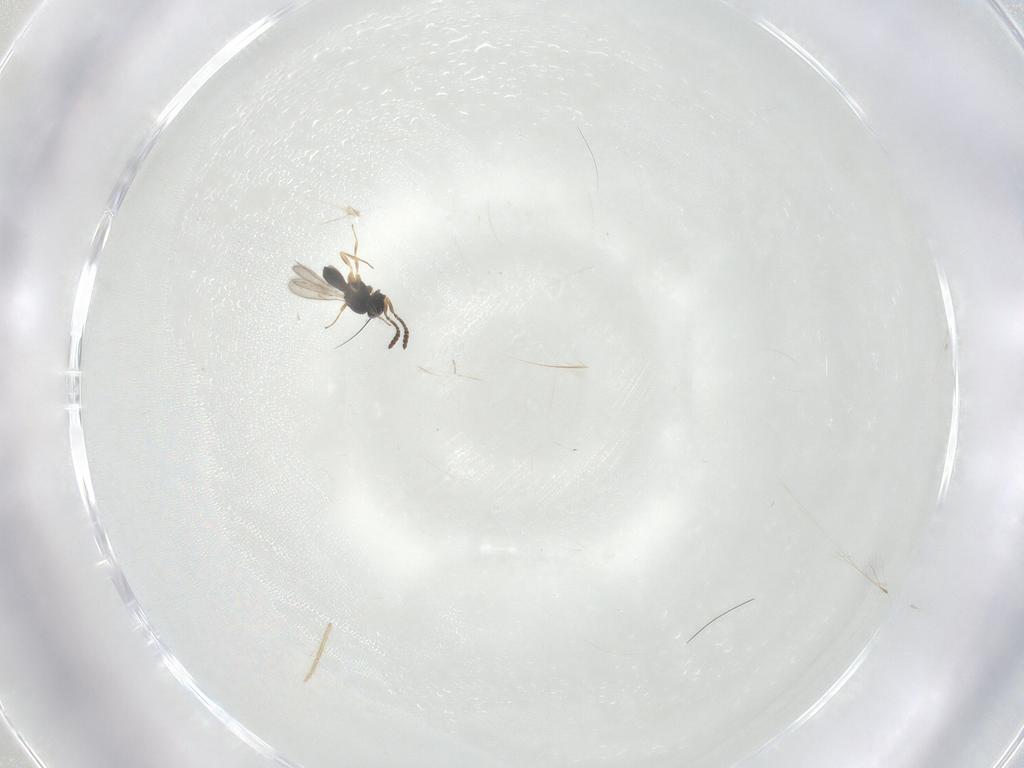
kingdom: Animalia
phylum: Arthropoda
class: Insecta
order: Hymenoptera
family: Scelionidae
